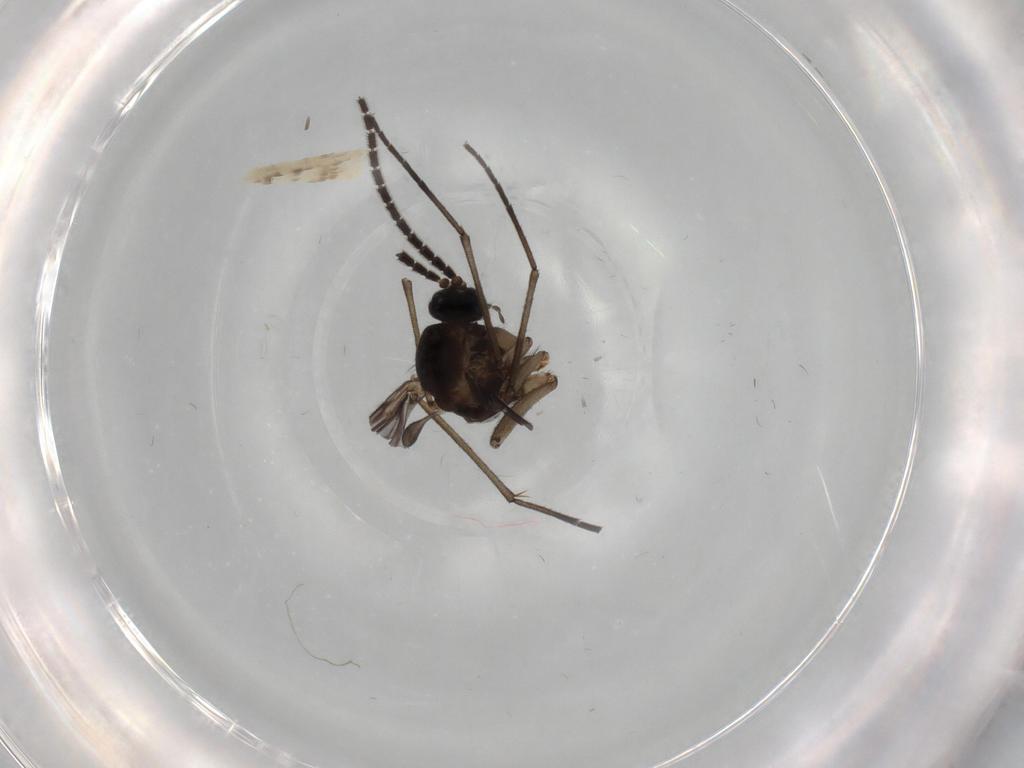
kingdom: Animalia
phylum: Arthropoda
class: Insecta
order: Diptera
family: Sciaridae
